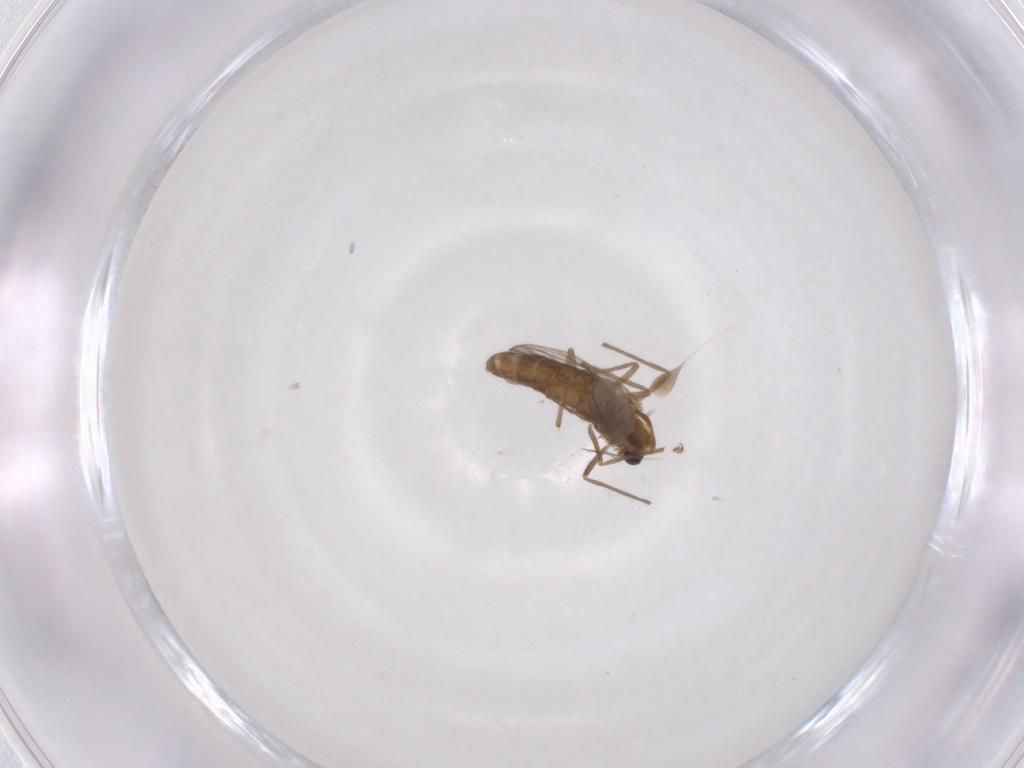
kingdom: Animalia
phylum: Arthropoda
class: Insecta
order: Diptera
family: Chironomidae
